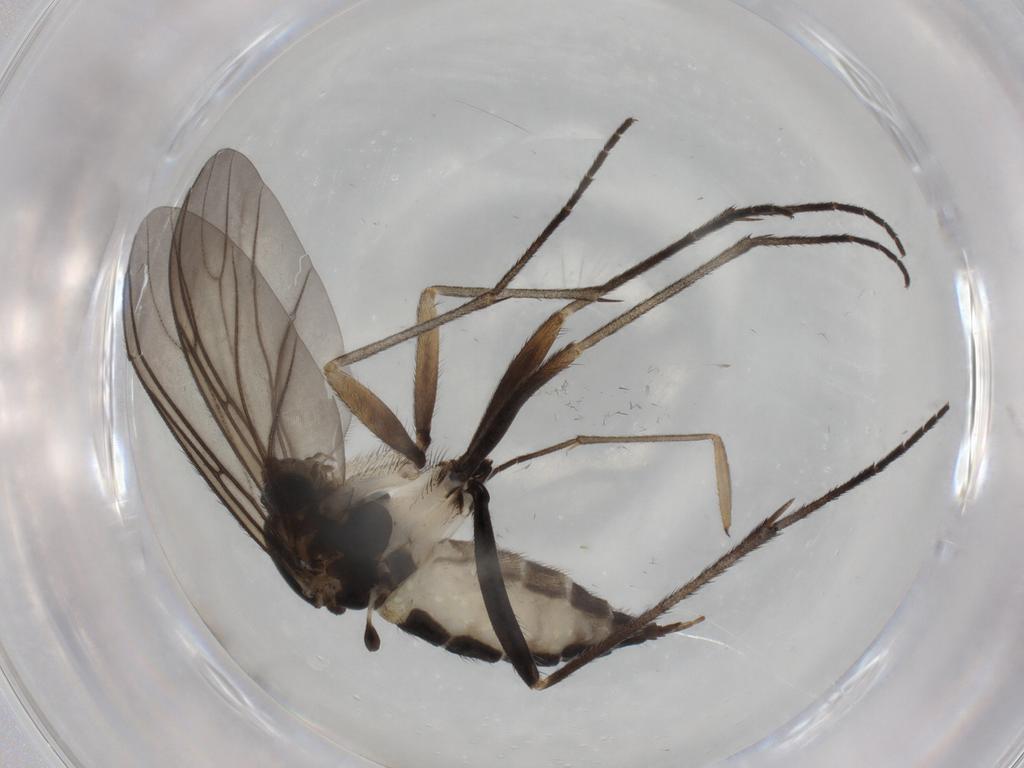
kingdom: Animalia
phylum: Arthropoda
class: Insecta
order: Diptera
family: Sciaridae
